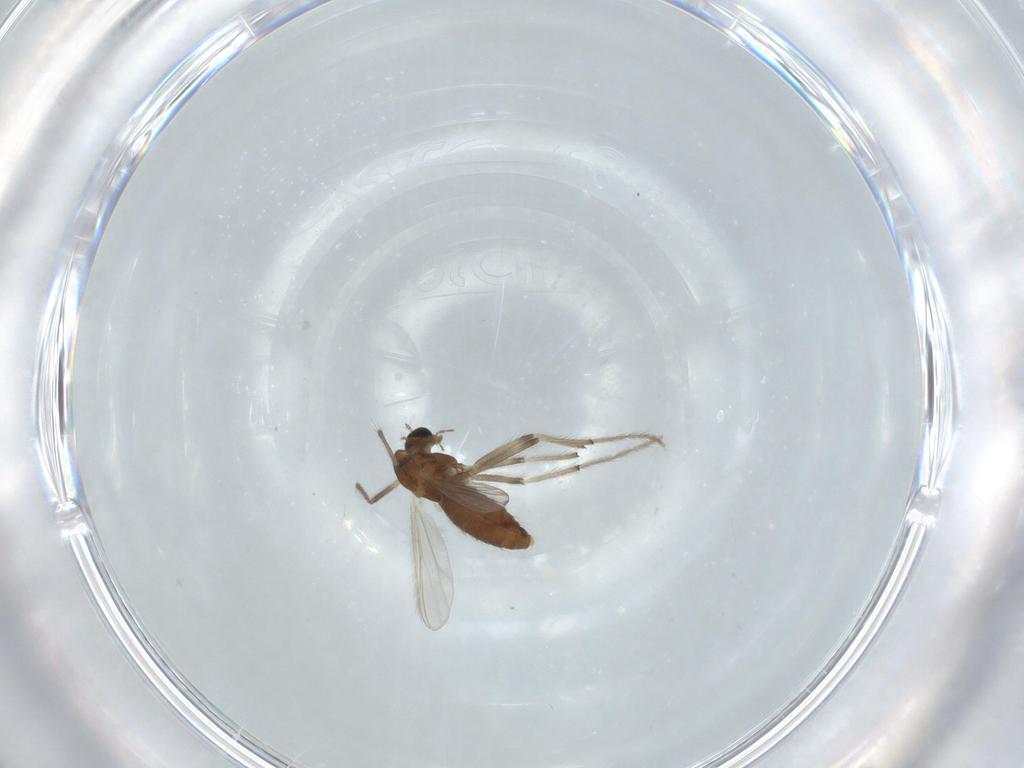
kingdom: Animalia
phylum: Arthropoda
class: Insecta
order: Diptera
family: Chironomidae
